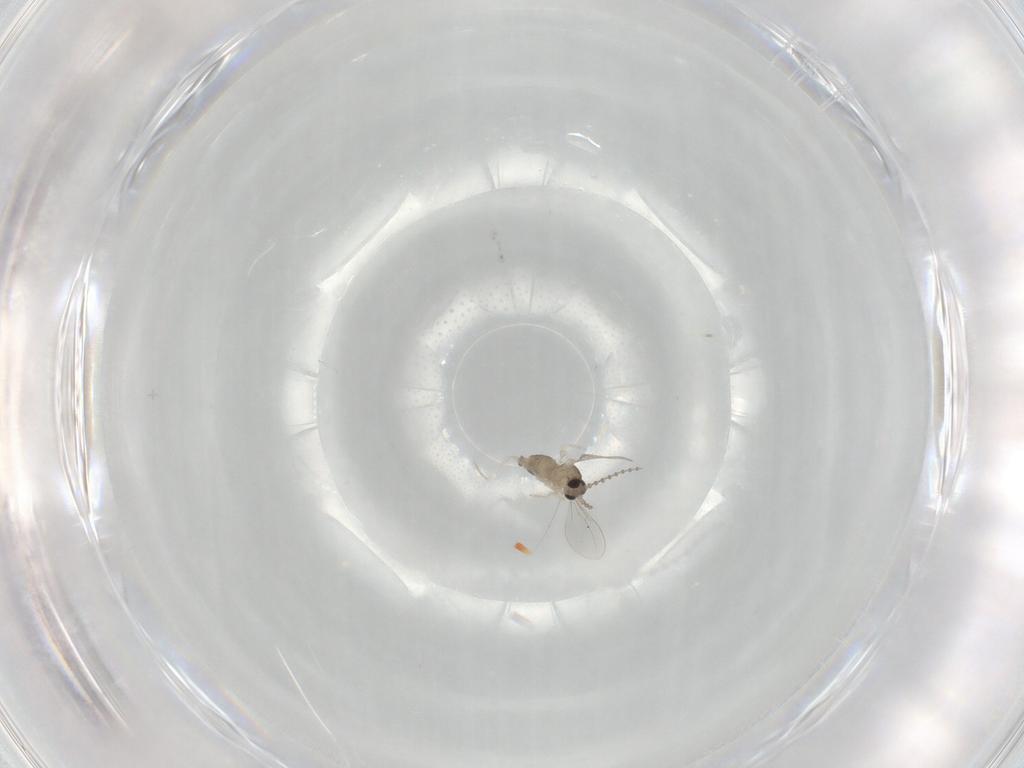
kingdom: Animalia
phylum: Arthropoda
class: Insecta
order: Diptera
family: Cecidomyiidae
